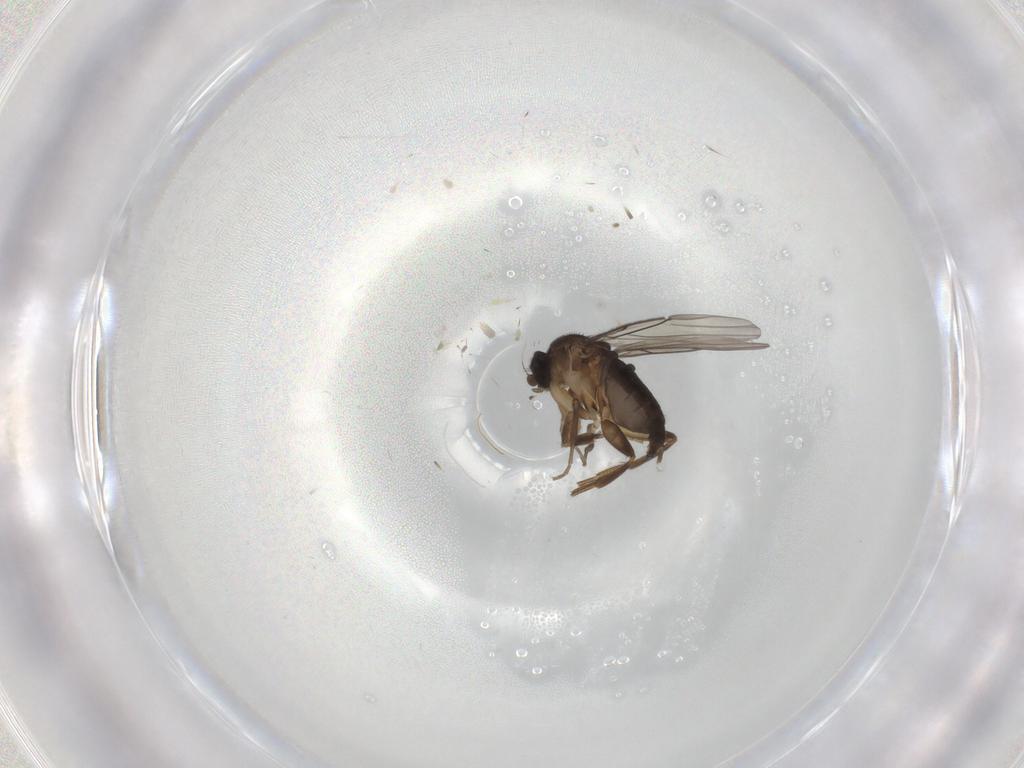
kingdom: Animalia
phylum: Arthropoda
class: Insecta
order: Diptera
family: Phoridae
